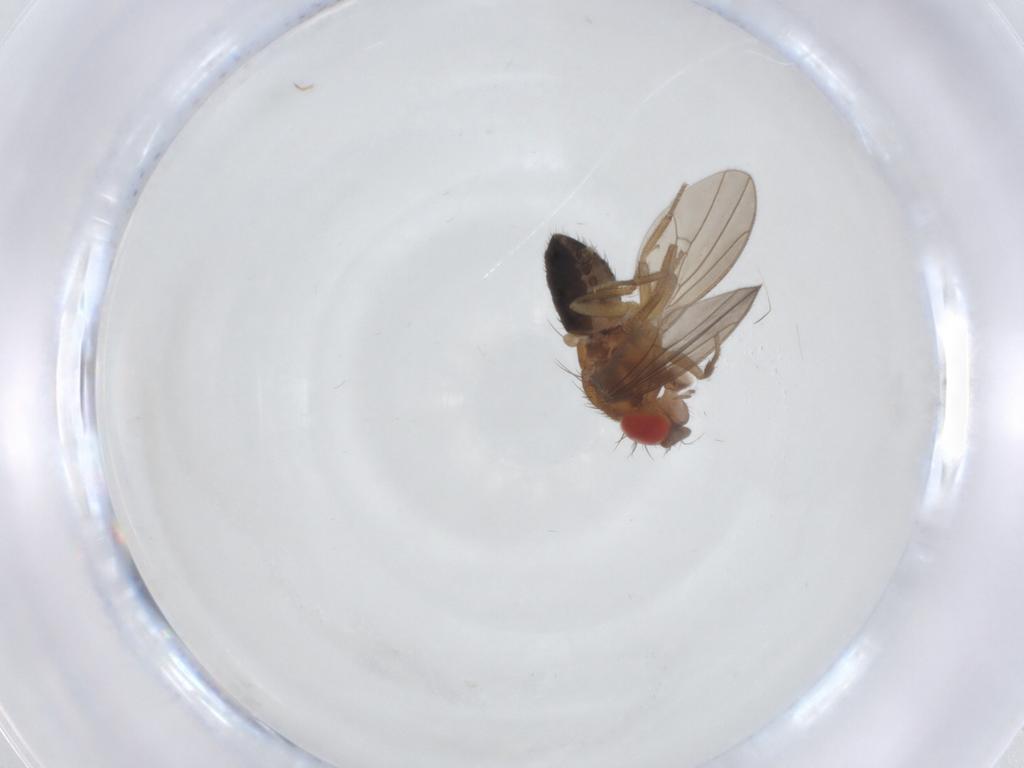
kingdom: Animalia
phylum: Arthropoda
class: Insecta
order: Diptera
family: Drosophilidae
